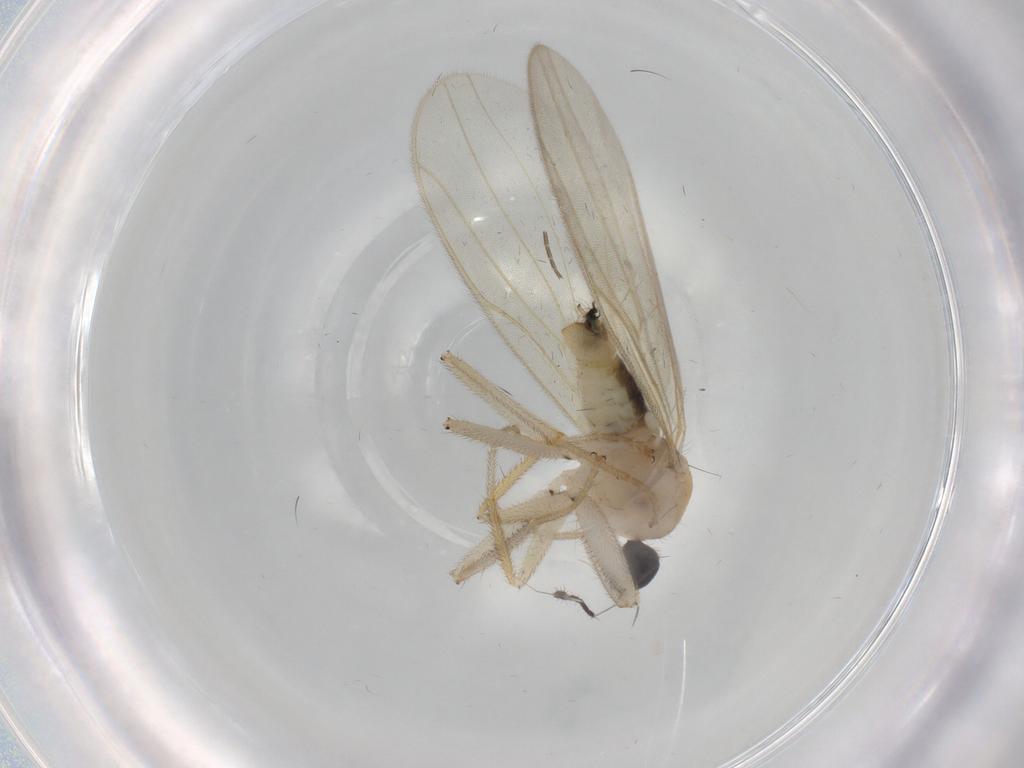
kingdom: Animalia
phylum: Arthropoda
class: Insecta
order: Diptera
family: Hybotidae
